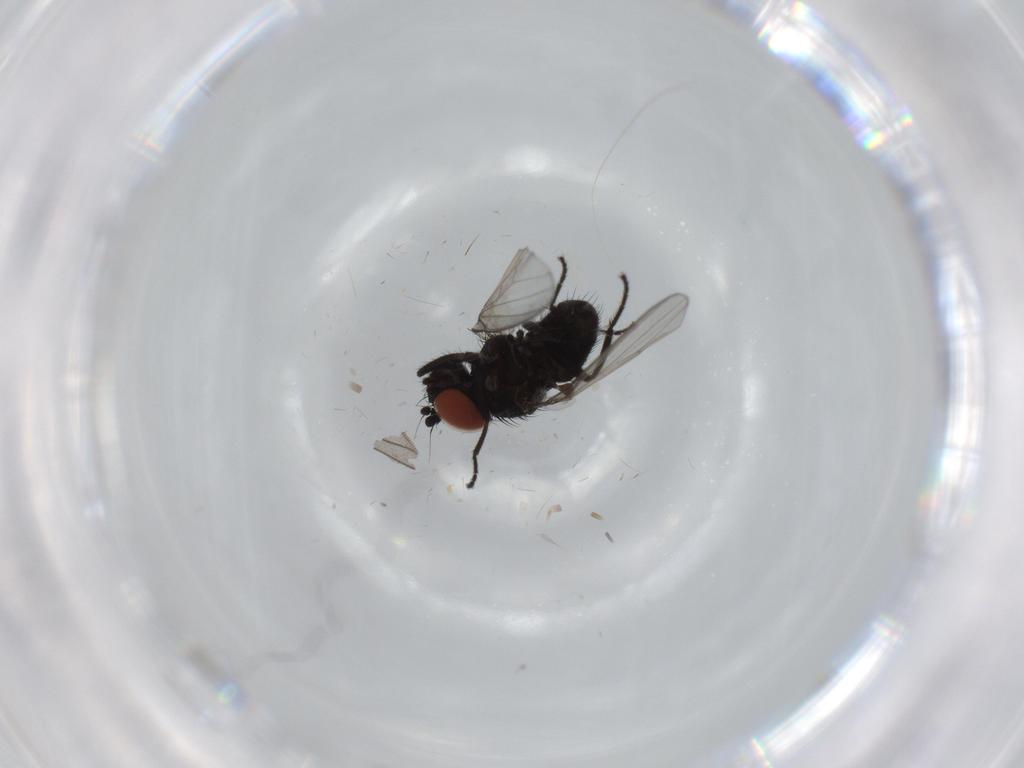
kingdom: Animalia
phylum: Arthropoda
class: Insecta
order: Diptera
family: Milichiidae
